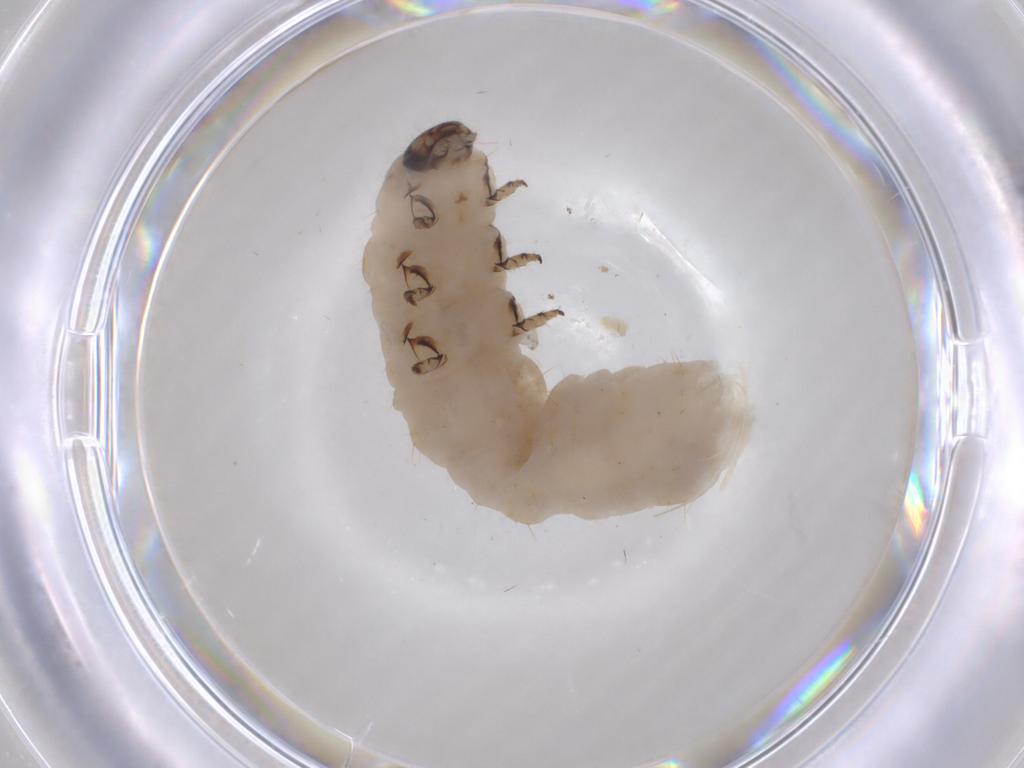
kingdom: Animalia
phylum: Arthropoda
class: Insecta
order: Coleoptera
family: Chrysomelidae
